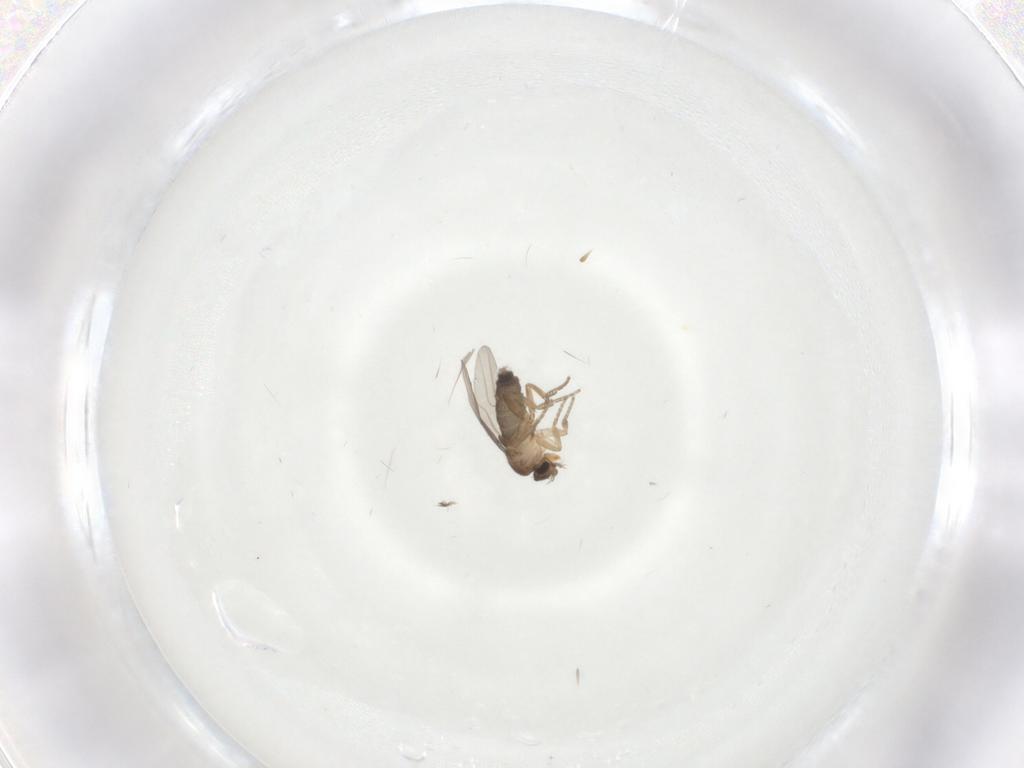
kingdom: Animalia
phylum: Arthropoda
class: Insecta
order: Diptera
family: Phoridae
